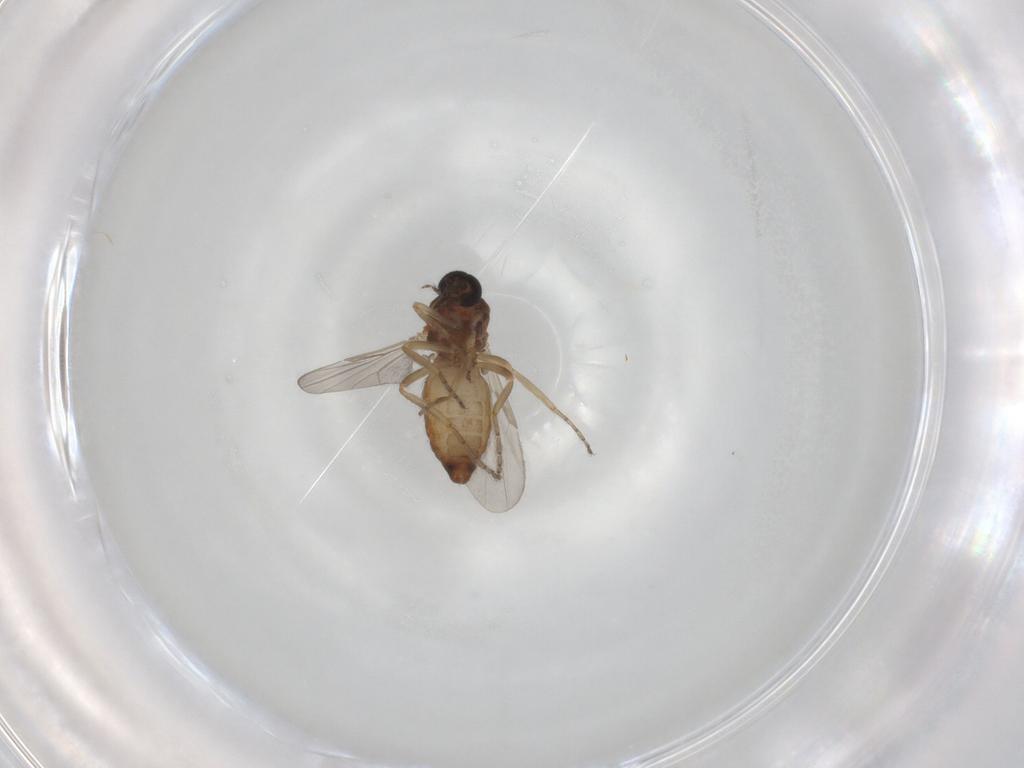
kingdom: Animalia
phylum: Arthropoda
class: Insecta
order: Diptera
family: Ceratopogonidae
